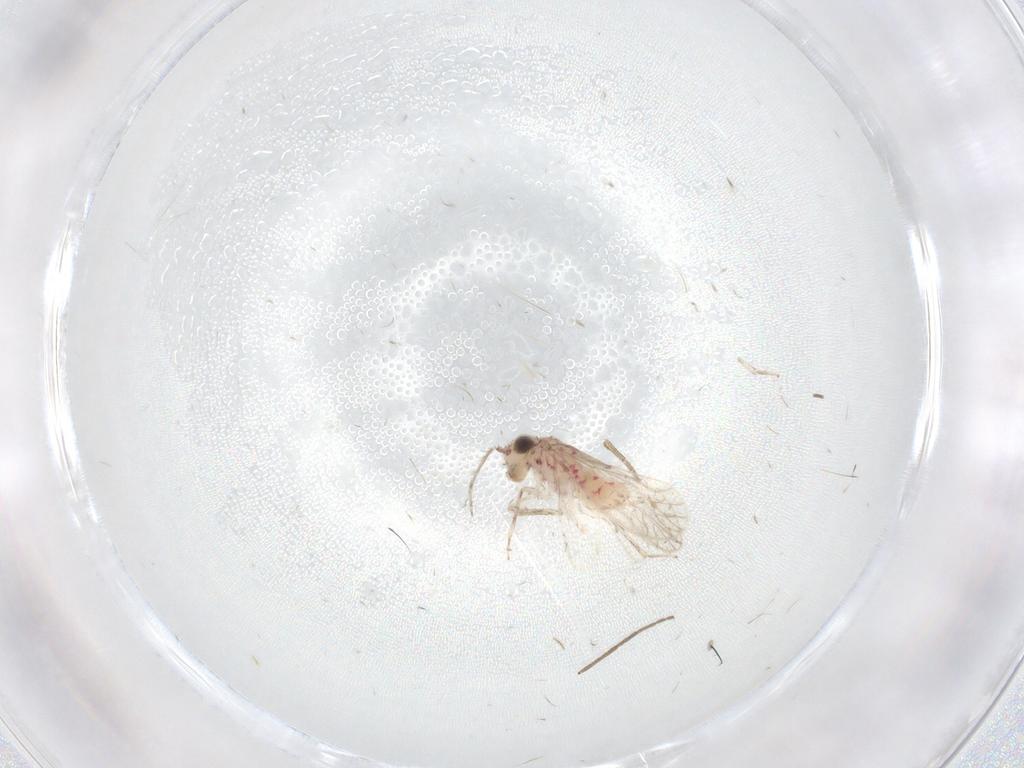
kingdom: Animalia
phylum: Arthropoda
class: Insecta
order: Psocodea
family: Caeciliusidae
